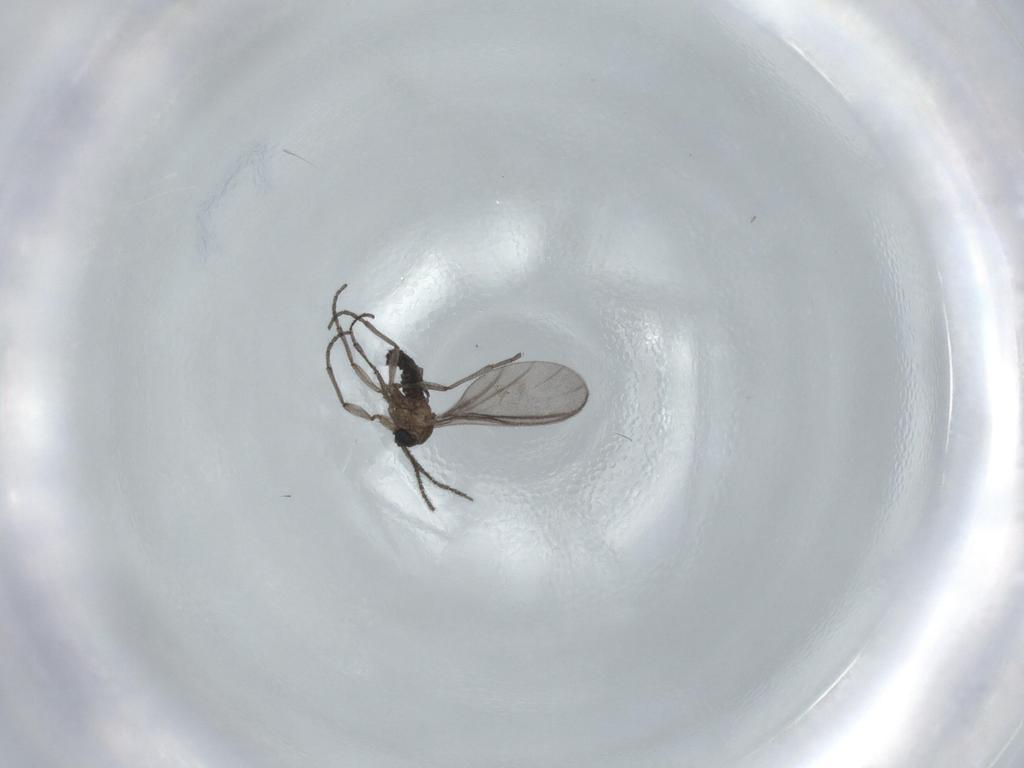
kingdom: Animalia
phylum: Arthropoda
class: Insecta
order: Diptera
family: Sciaridae
